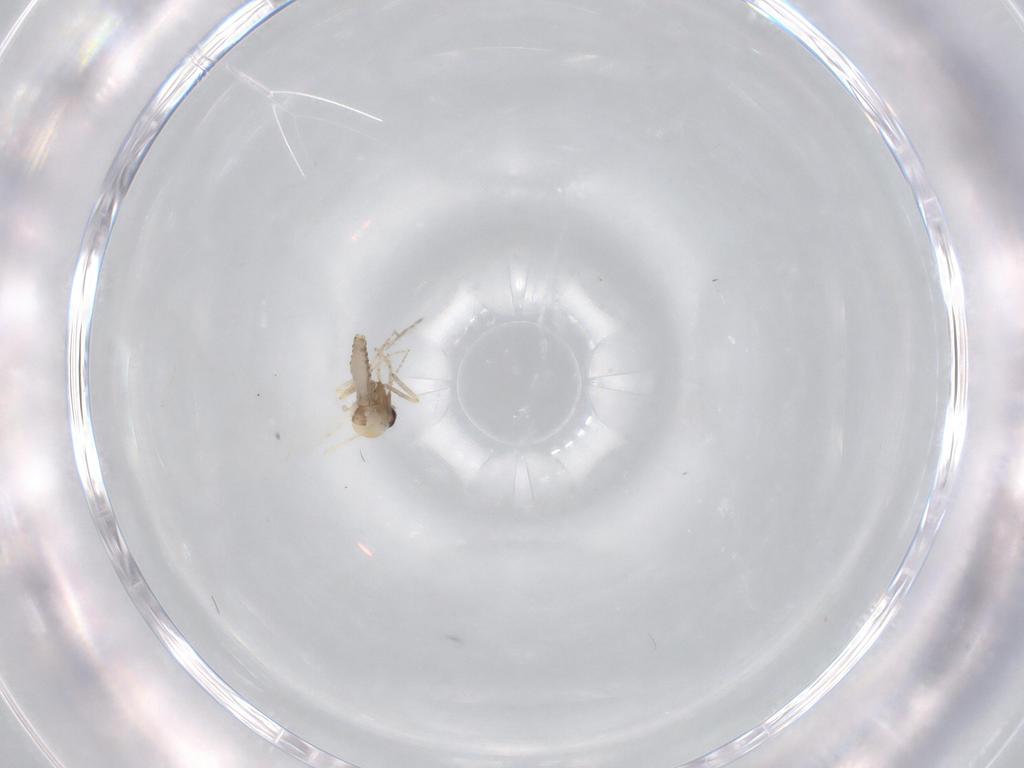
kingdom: Animalia
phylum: Arthropoda
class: Insecta
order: Diptera
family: Ceratopogonidae
